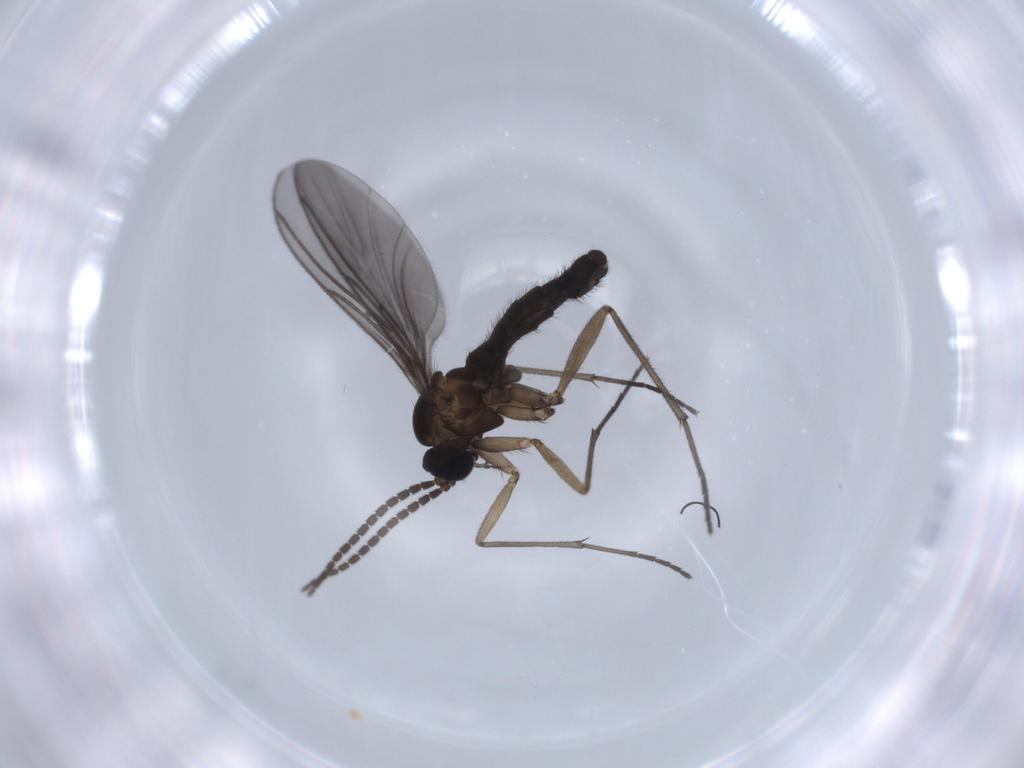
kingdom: Animalia
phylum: Arthropoda
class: Insecta
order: Diptera
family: Sciaridae
